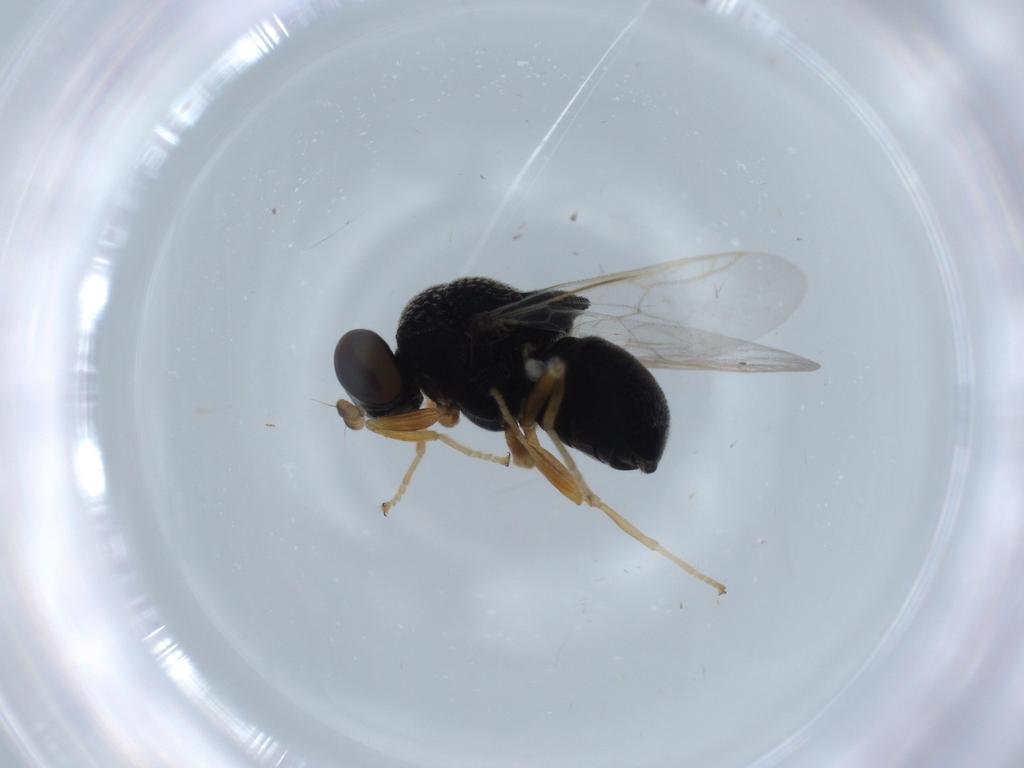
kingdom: Animalia
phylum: Arthropoda
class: Insecta
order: Diptera
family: Stratiomyidae
